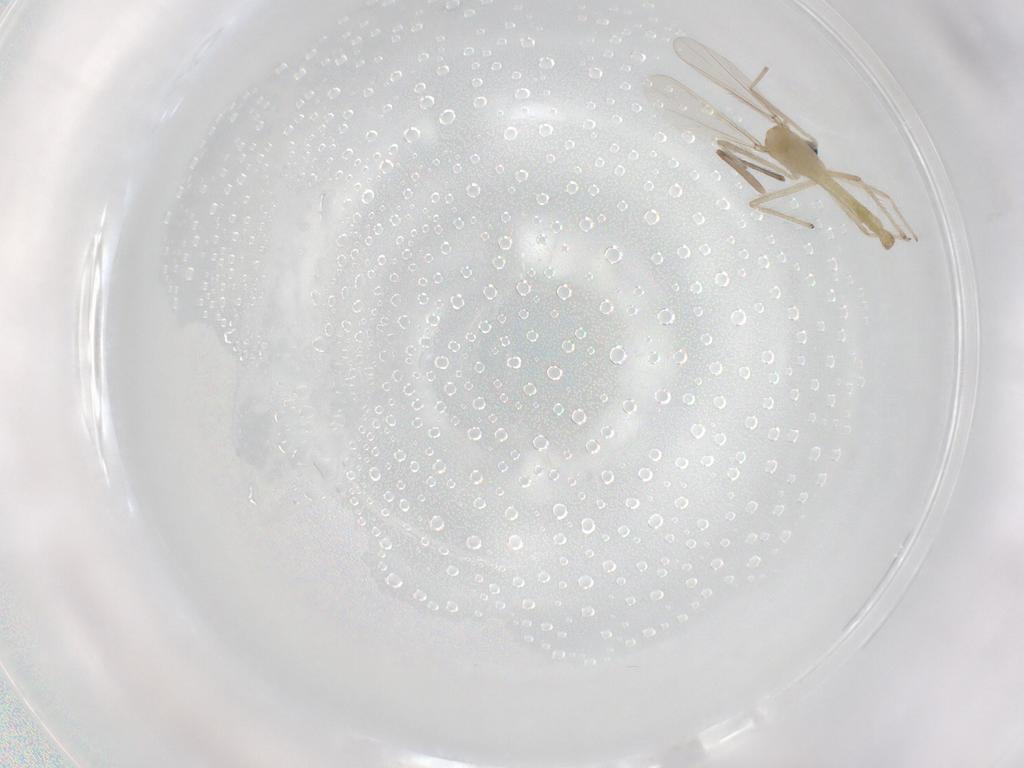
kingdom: Animalia
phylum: Arthropoda
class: Insecta
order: Diptera
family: Chironomidae
